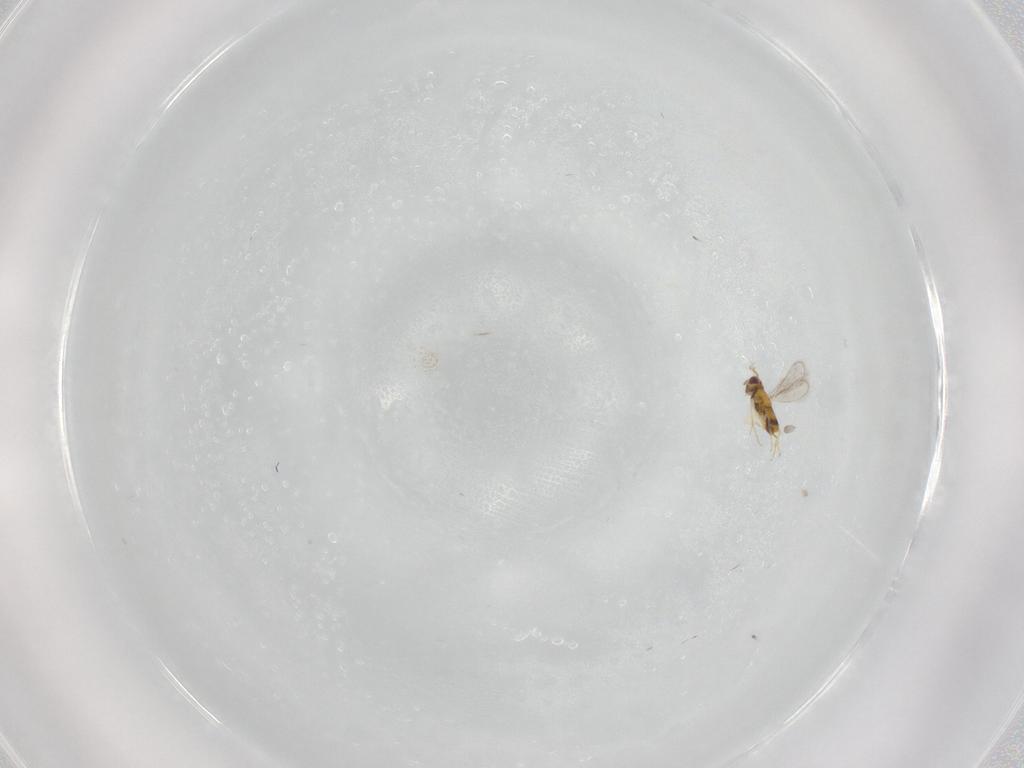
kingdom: Animalia
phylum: Arthropoda
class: Insecta
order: Hymenoptera
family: Aphelinidae
